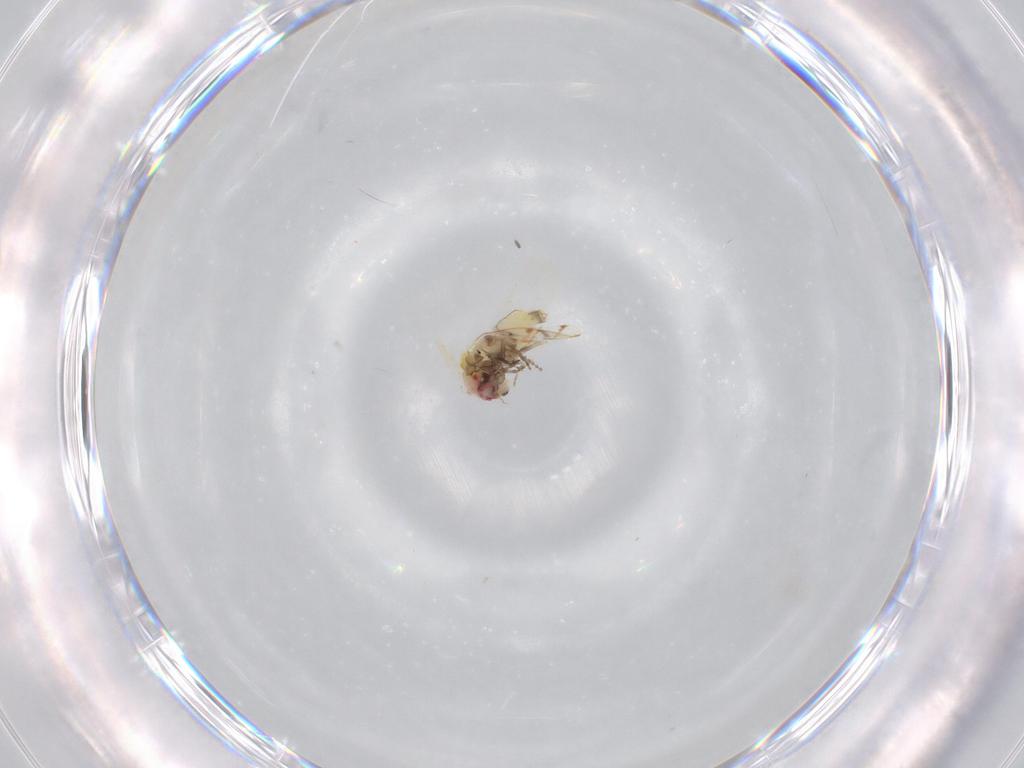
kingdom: Animalia
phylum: Arthropoda
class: Insecta
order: Hemiptera
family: Aleyrodidae
